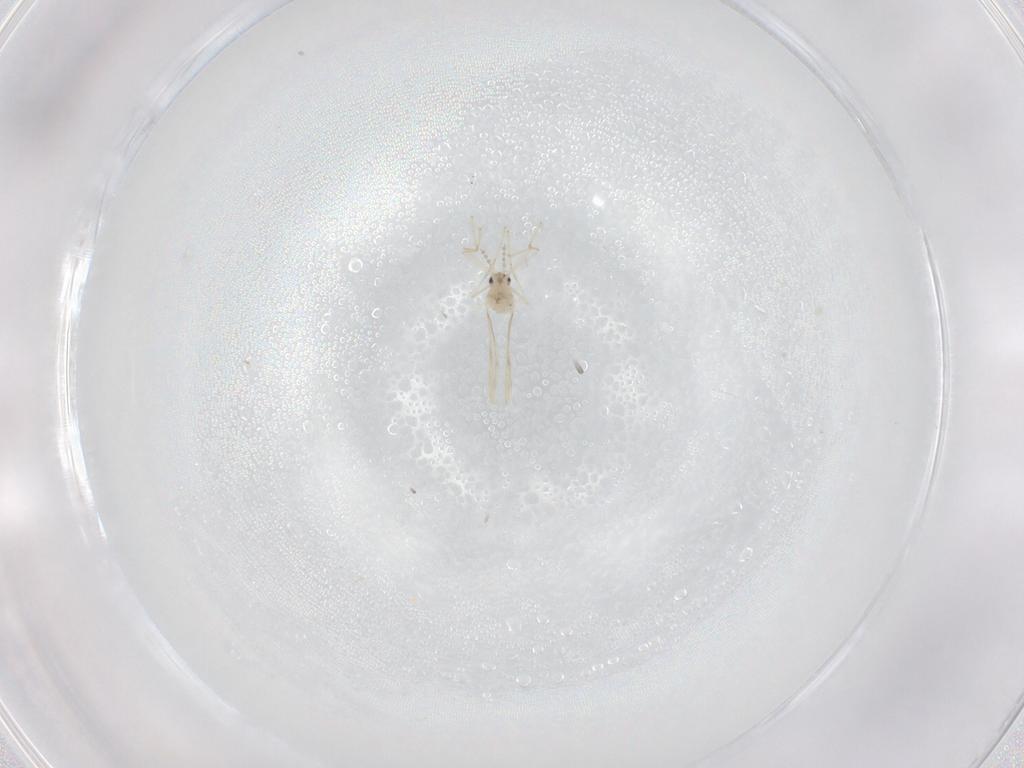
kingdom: Animalia
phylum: Arthropoda
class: Insecta
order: Diptera
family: Cecidomyiidae
